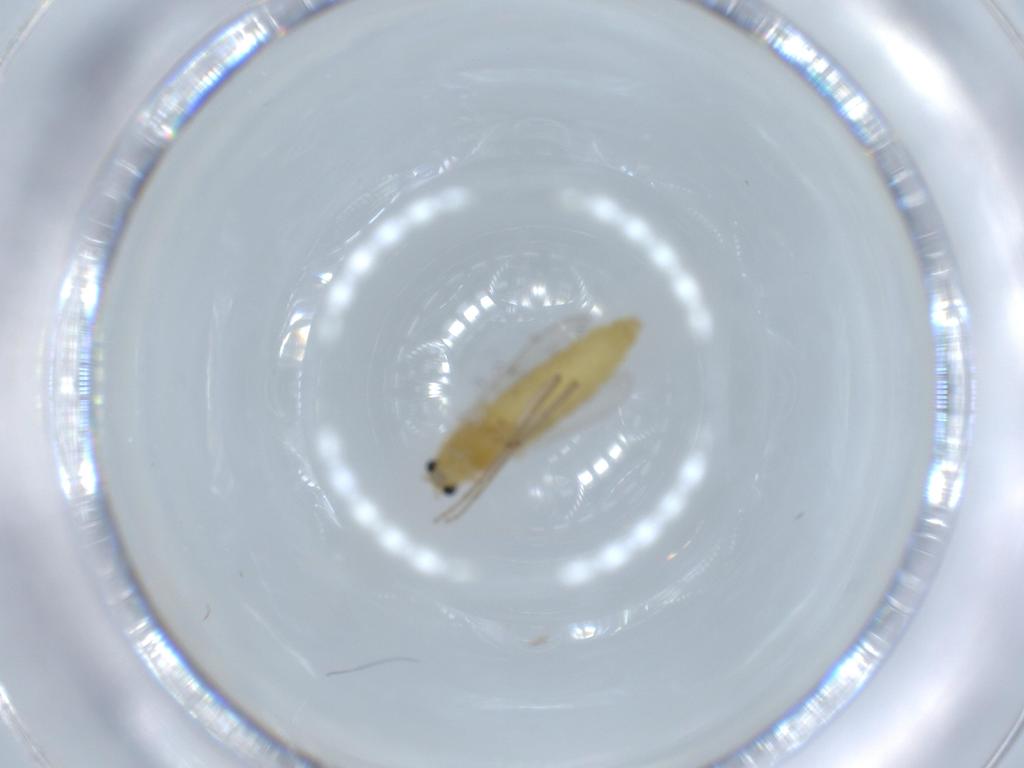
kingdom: Animalia
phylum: Arthropoda
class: Insecta
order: Diptera
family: Chironomidae
